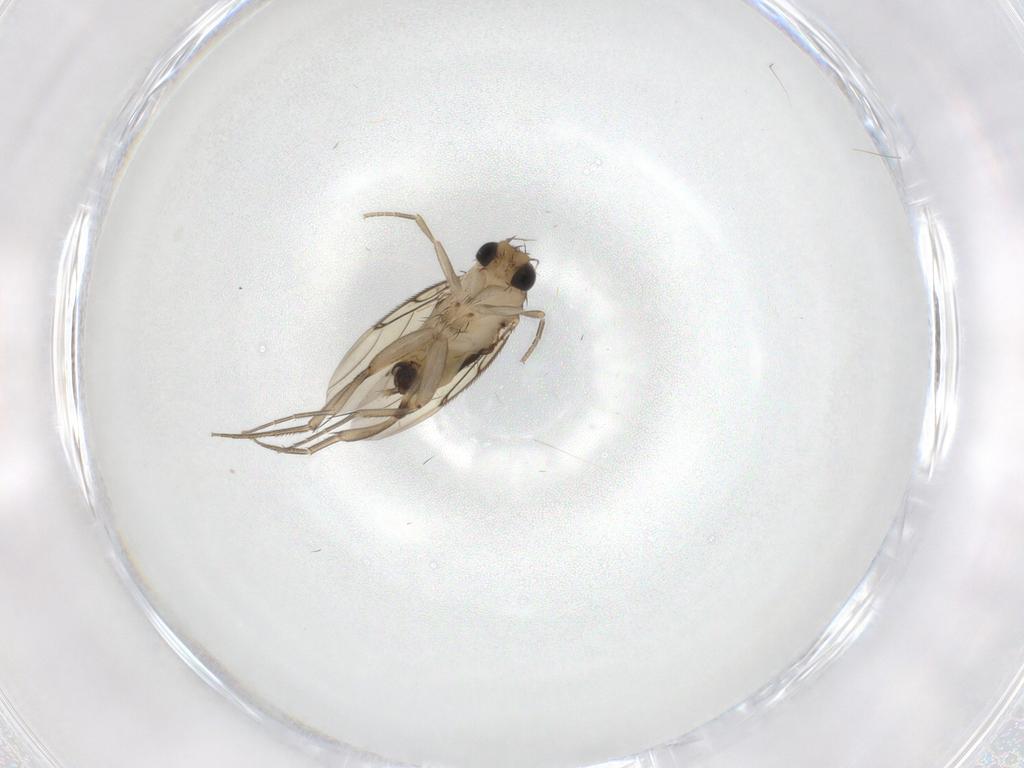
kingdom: Animalia
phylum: Arthropoda
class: Insecta
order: Diptera
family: Phoridae
